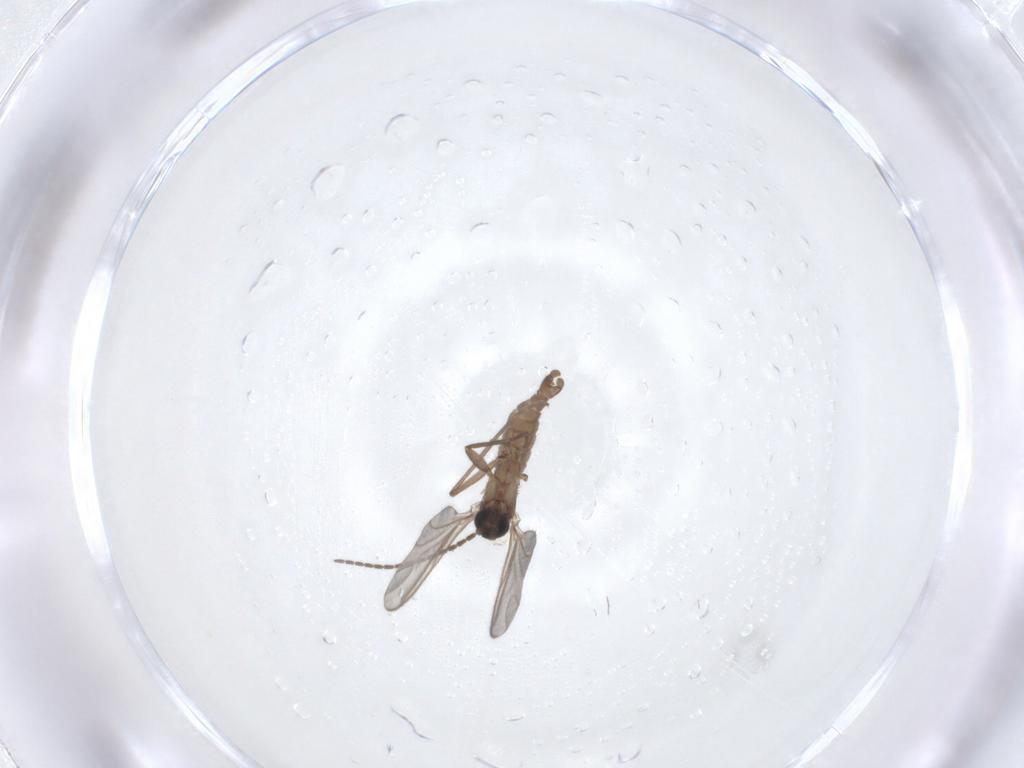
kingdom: Animalia
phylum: Arthropoda
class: Insecta
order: Diptera
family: Sciaridae
